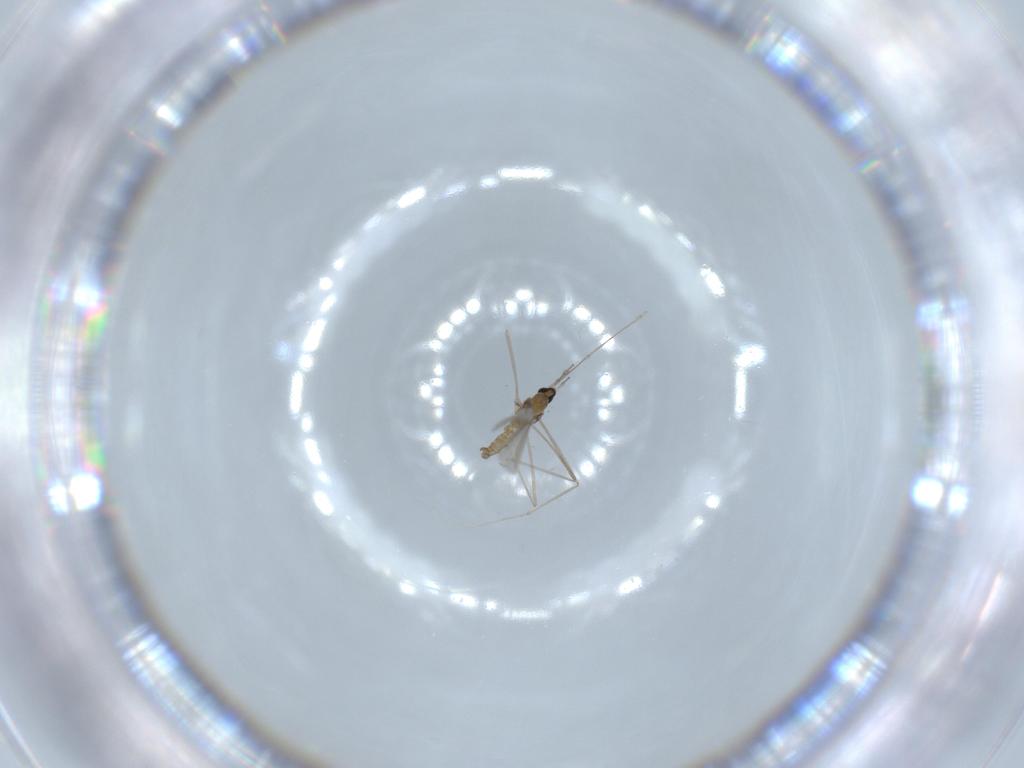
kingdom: Animalia
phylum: Arthropoda
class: Insecta
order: Diptera
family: Cecidomyiidae
